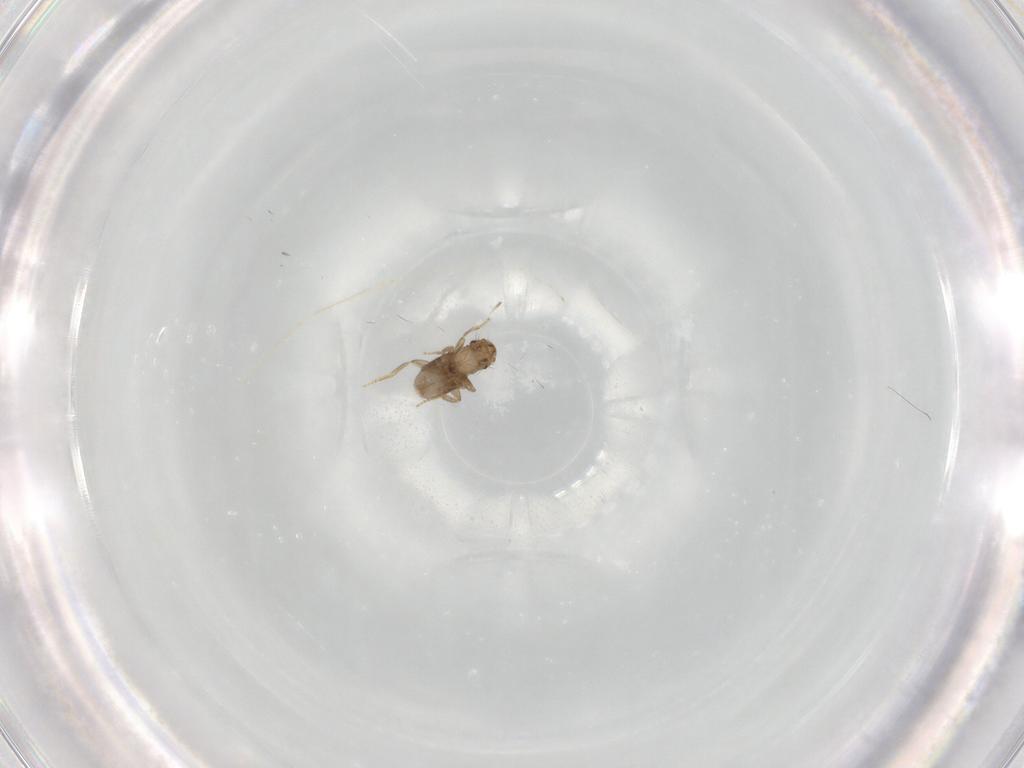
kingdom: Animalia
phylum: Arthropoda
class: Insecta
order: Diptera
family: Cecidomyiidae
